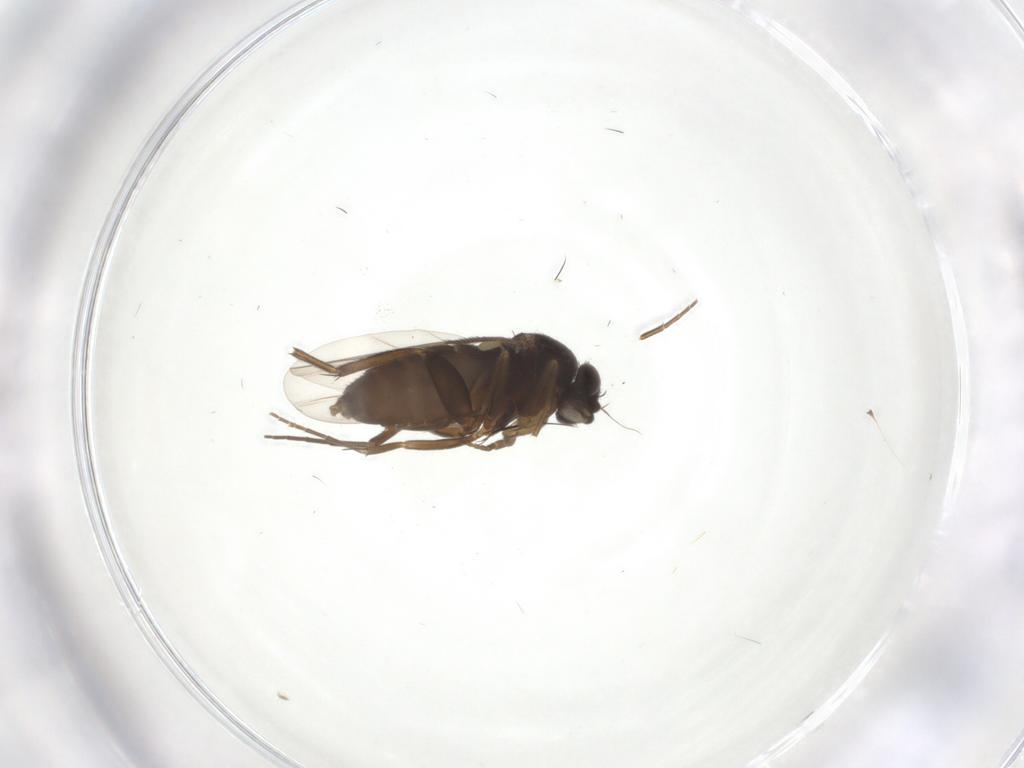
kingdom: Animalia
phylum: Arthropoda
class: Insecta
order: Diptera
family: Phoridae
